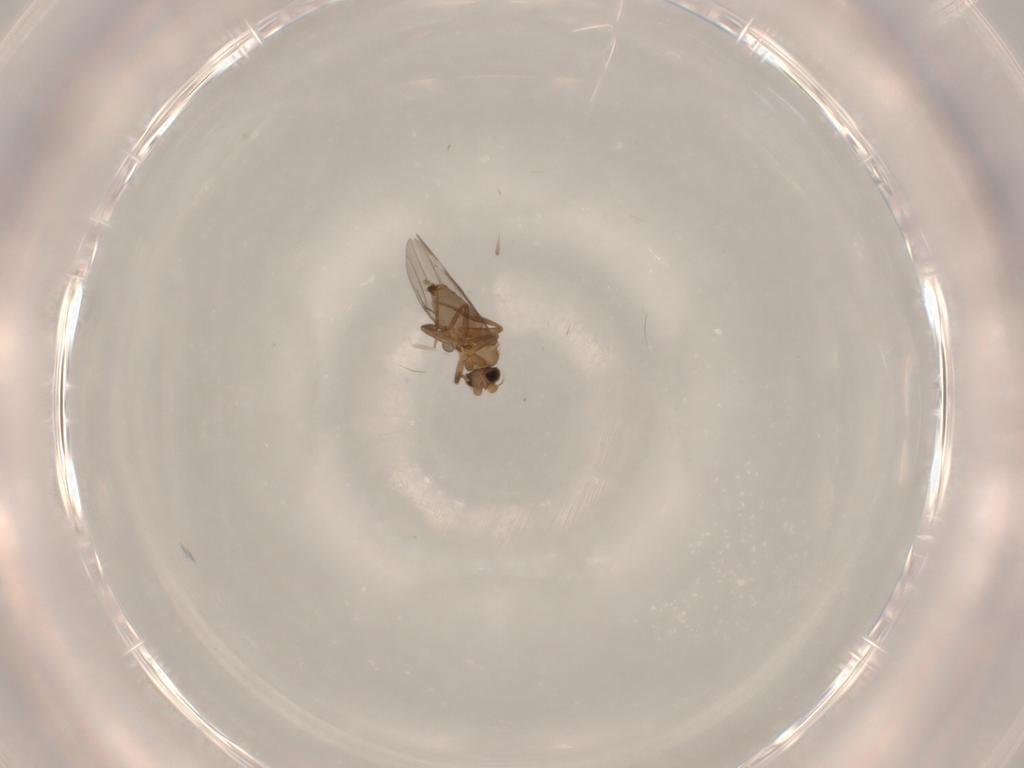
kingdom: Animalia
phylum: Arthropoda
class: Insecta
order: Diptera
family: Psychodidae
